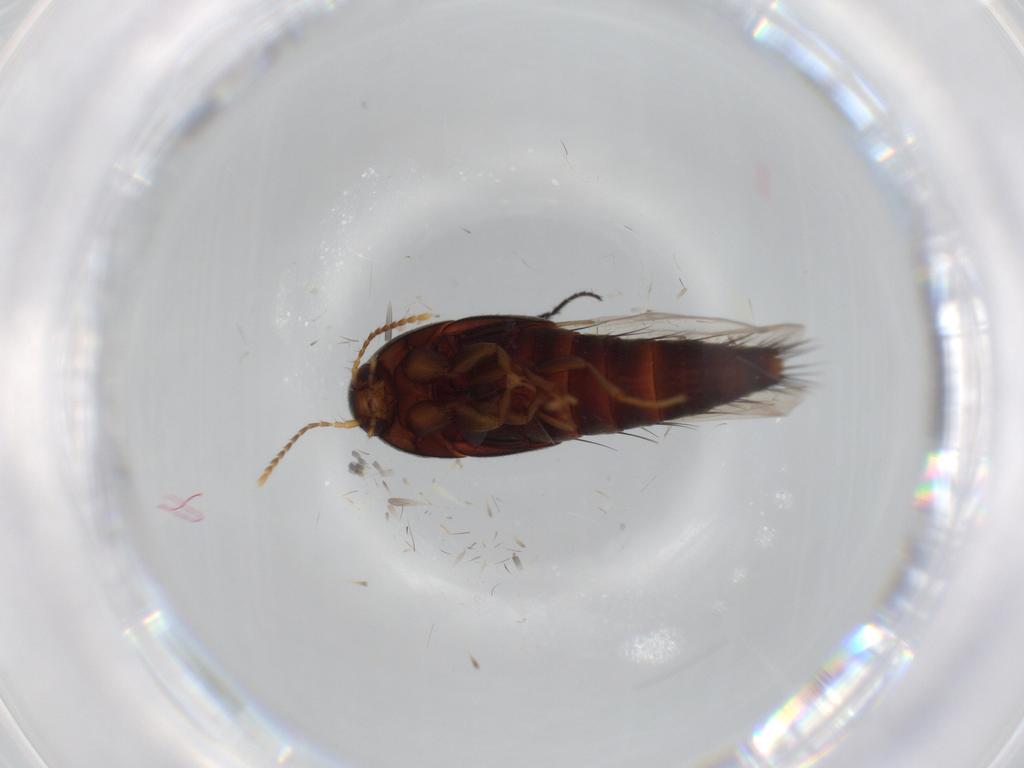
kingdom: Animalia
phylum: Arthropoda
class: Insecta
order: Coleoptera
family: Staphylinidae
